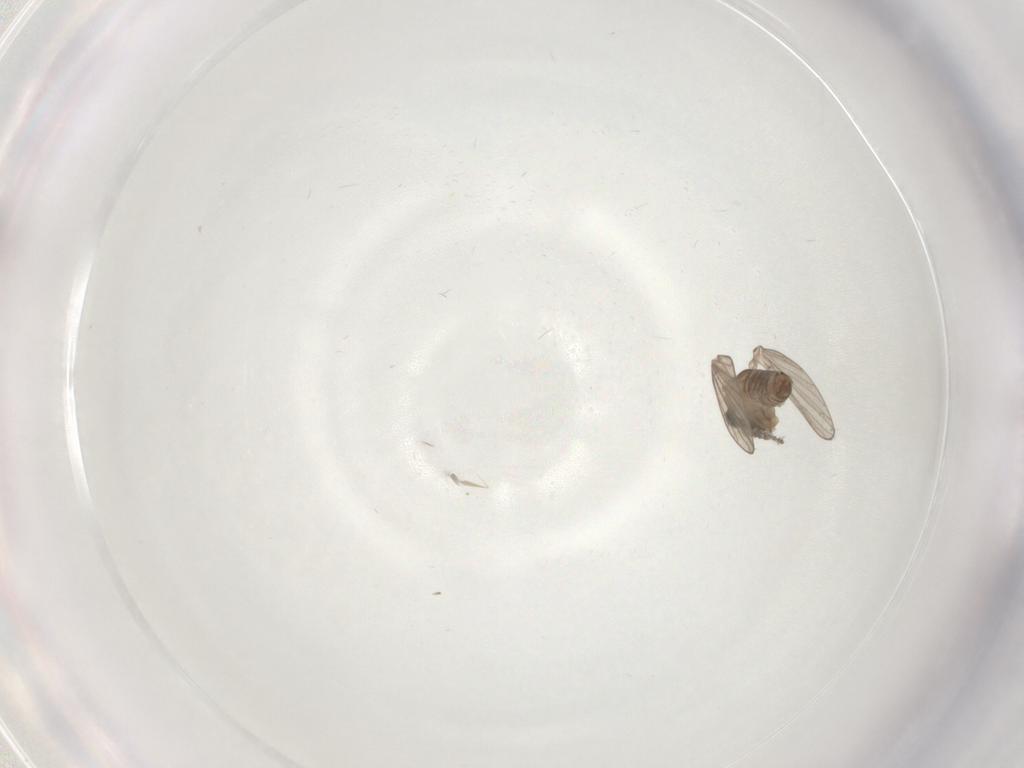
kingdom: Animalia
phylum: Arthropoda
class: Insecta
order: Diptera
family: Psychodidae
